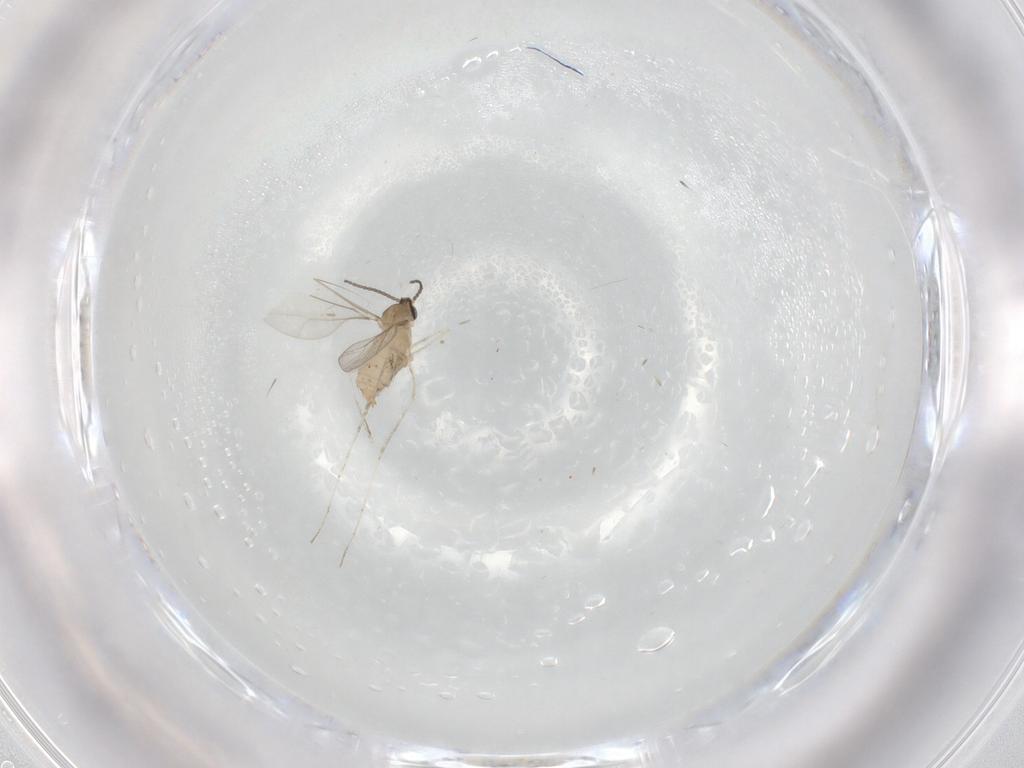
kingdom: Animalia
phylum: Arthropoda
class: Insecta
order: Diptera
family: Phoridae
